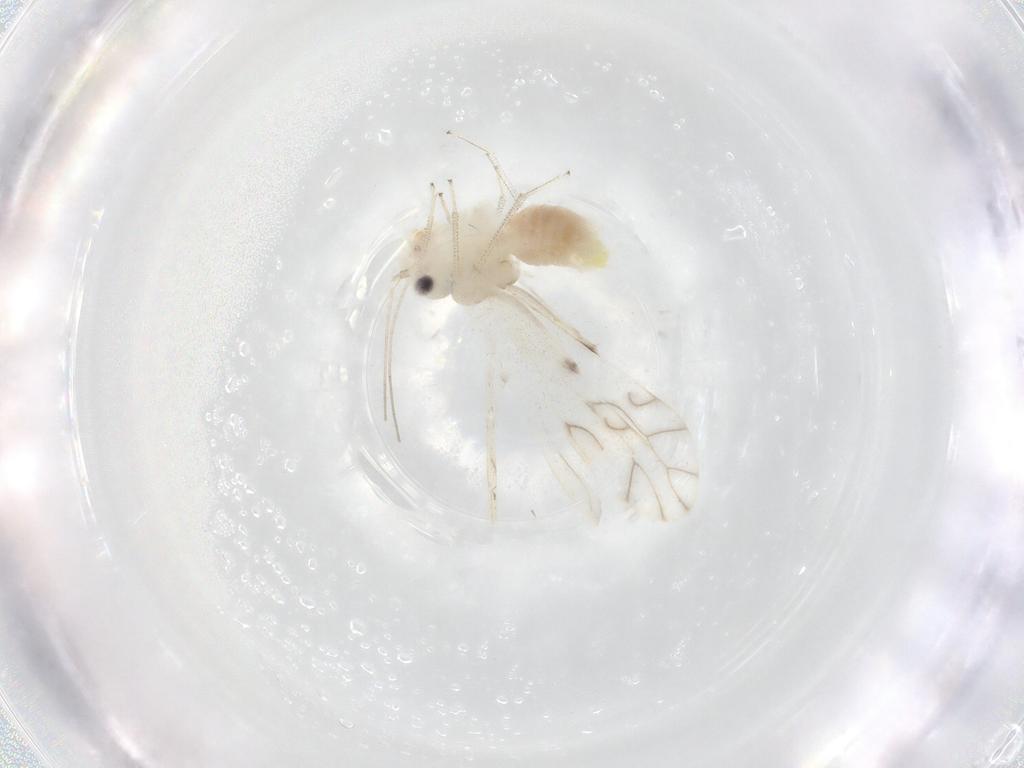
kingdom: Animalia
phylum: Arthropoda
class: Insecta
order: Psocodea
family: Caeciliusidae
